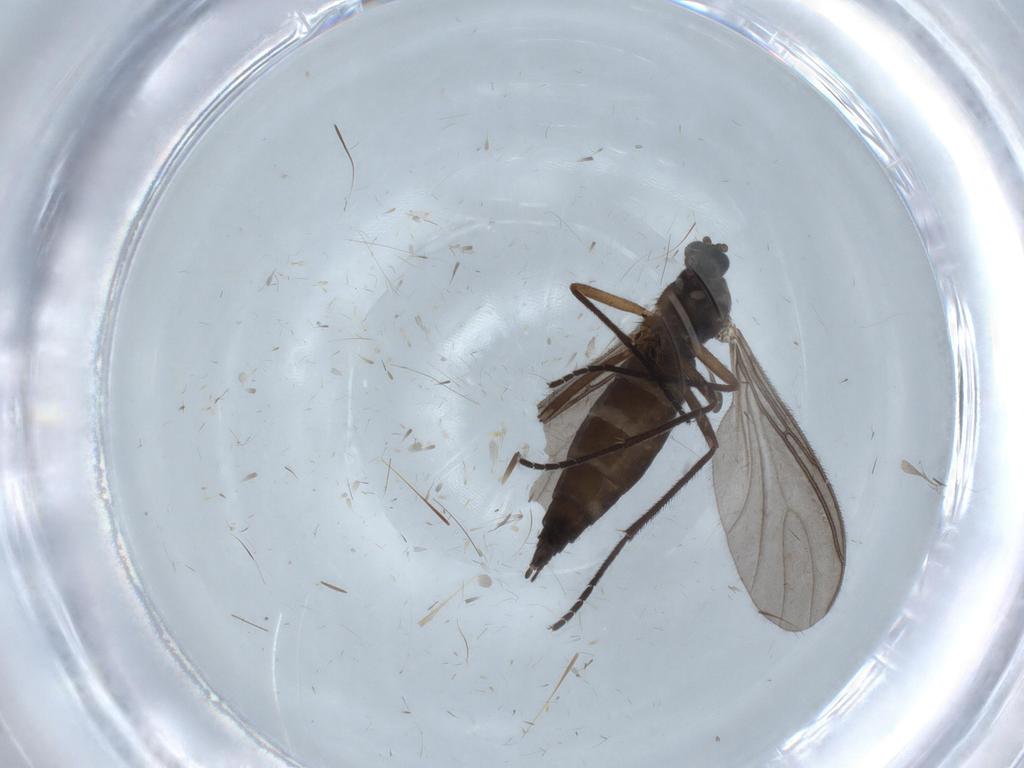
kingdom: Animalia
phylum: Arthropoda
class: Insecta
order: Diptera
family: Sciaridae
